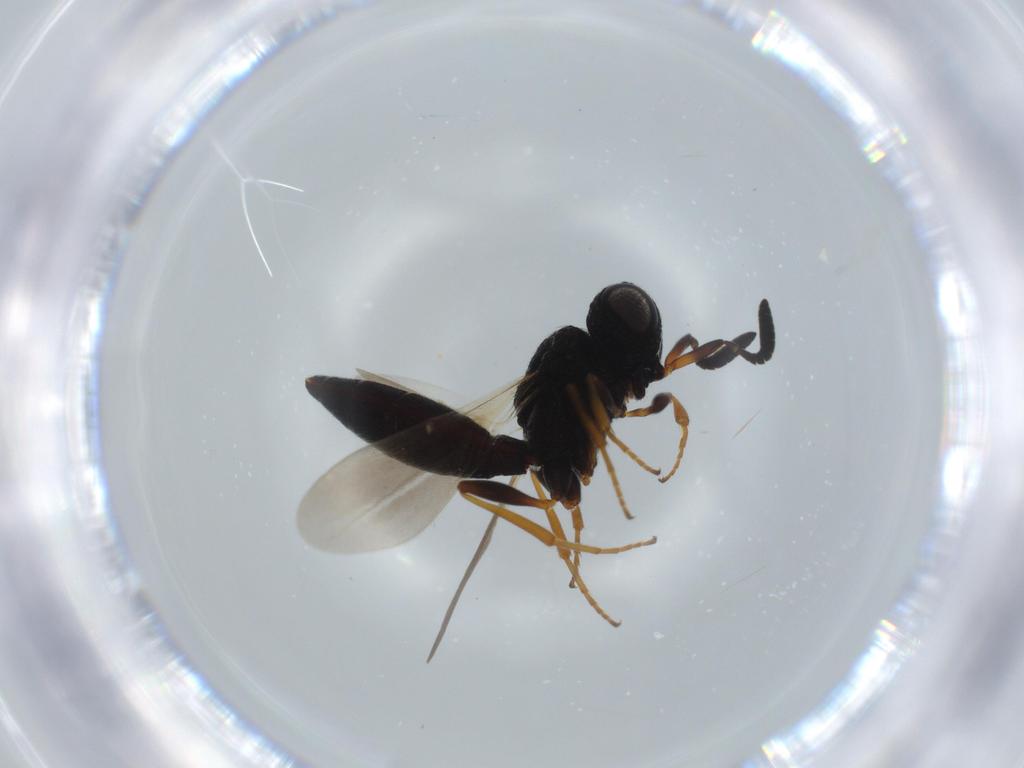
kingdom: Animalia
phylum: Arthropoda
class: Insecta
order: Hymenoptera
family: Scelionidae
